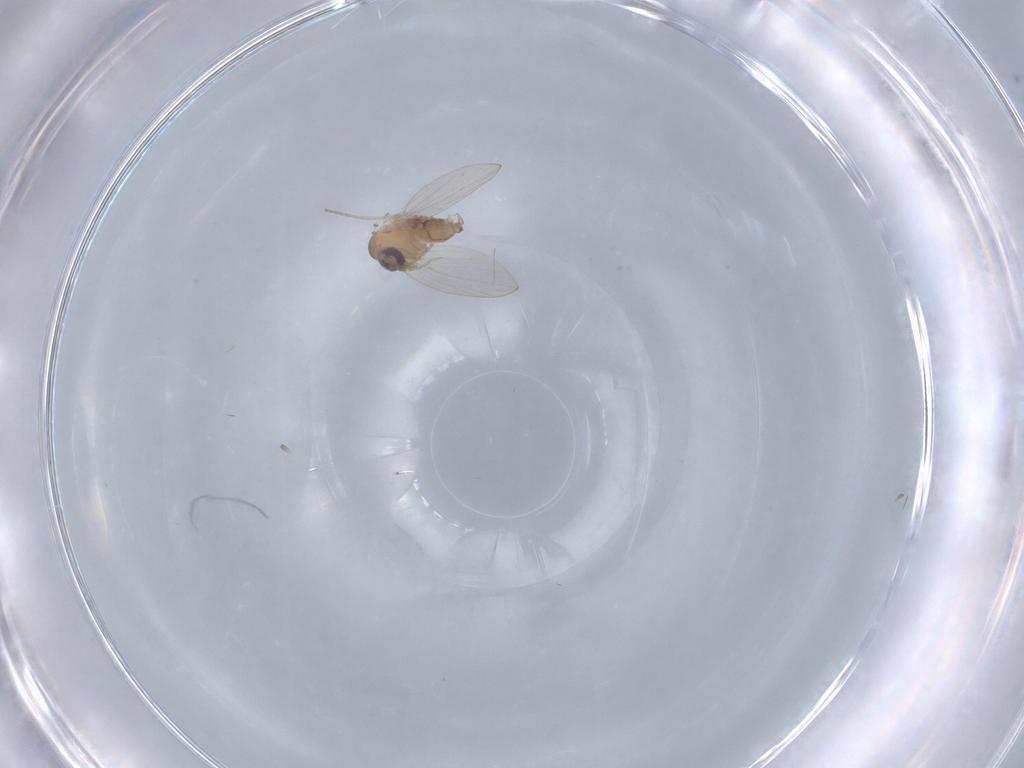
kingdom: Animalia
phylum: Arthropoda
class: Insecta
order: Diptera
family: Psychodidae
